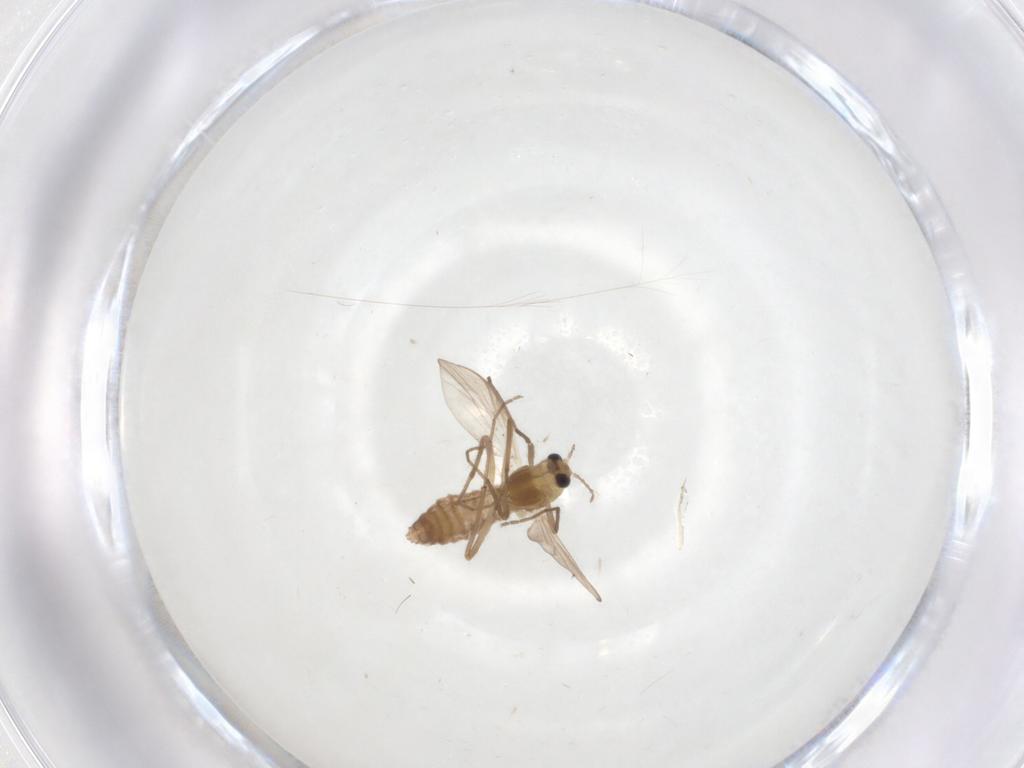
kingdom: Animalia
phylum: Arthropoda
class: Insecta
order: Diptera
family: Chironomidae
